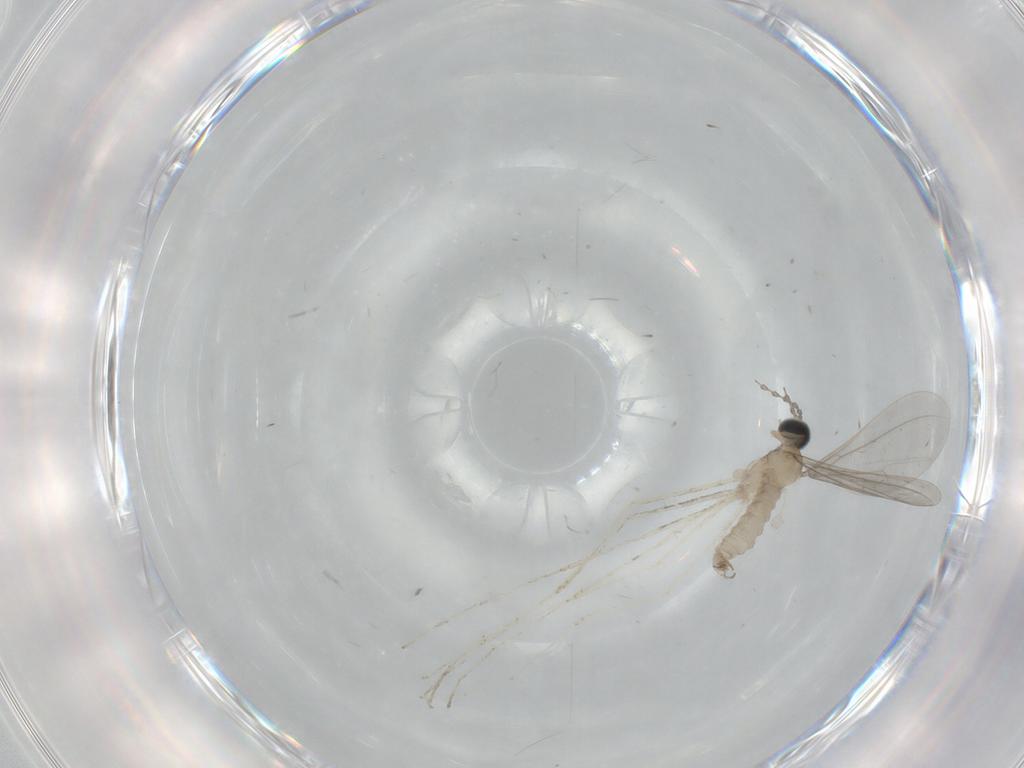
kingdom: Animalia
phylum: Arthropoda
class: Insecta
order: Diptera
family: Cecidomyiidae
